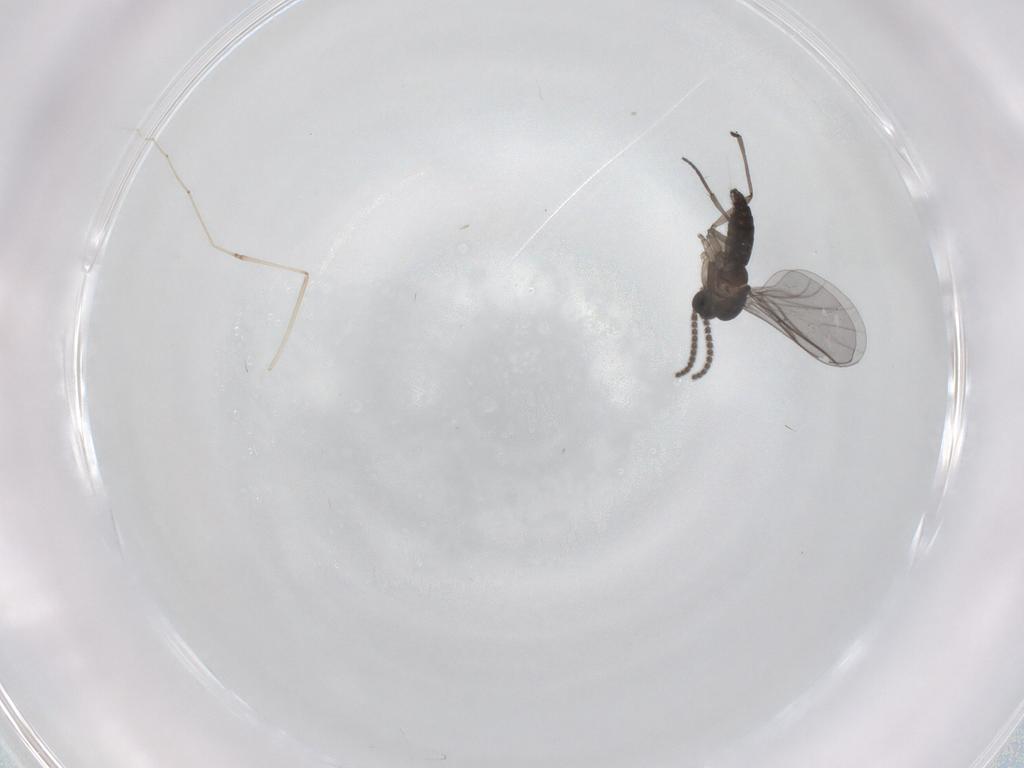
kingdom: Animalia
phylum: Arthropoda
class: Insecta
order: Diptera
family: Cecidomyiidae
